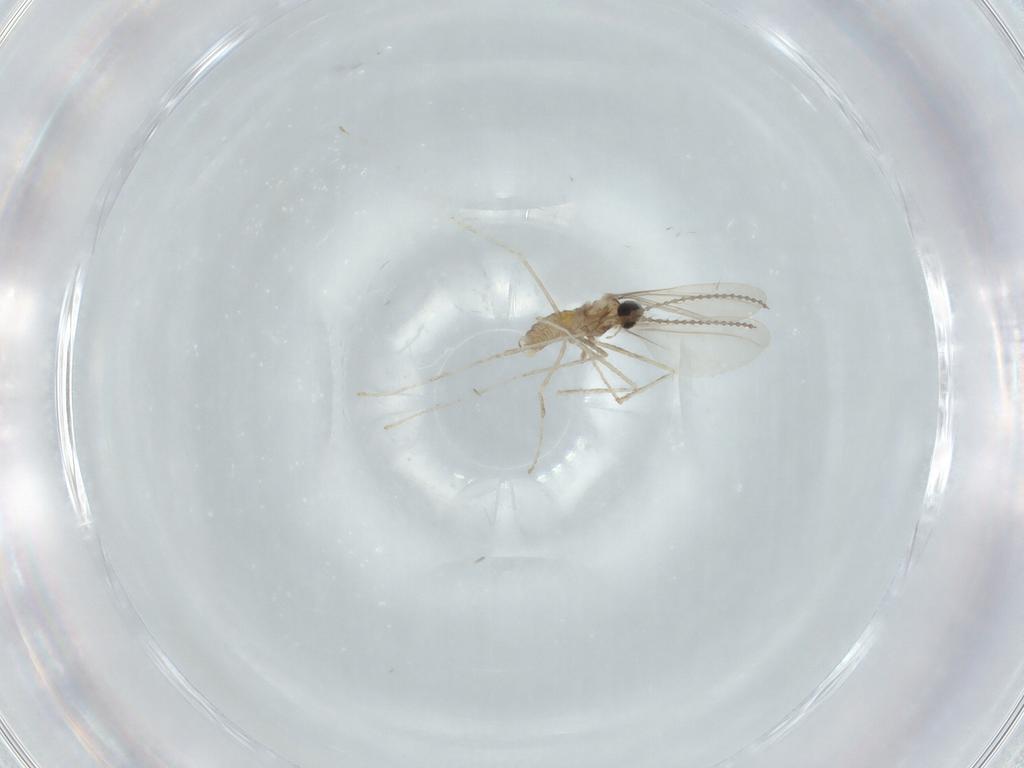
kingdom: Animalia
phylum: Arthropoda
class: Insecta
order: Diptera
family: Cecidomyiidae
